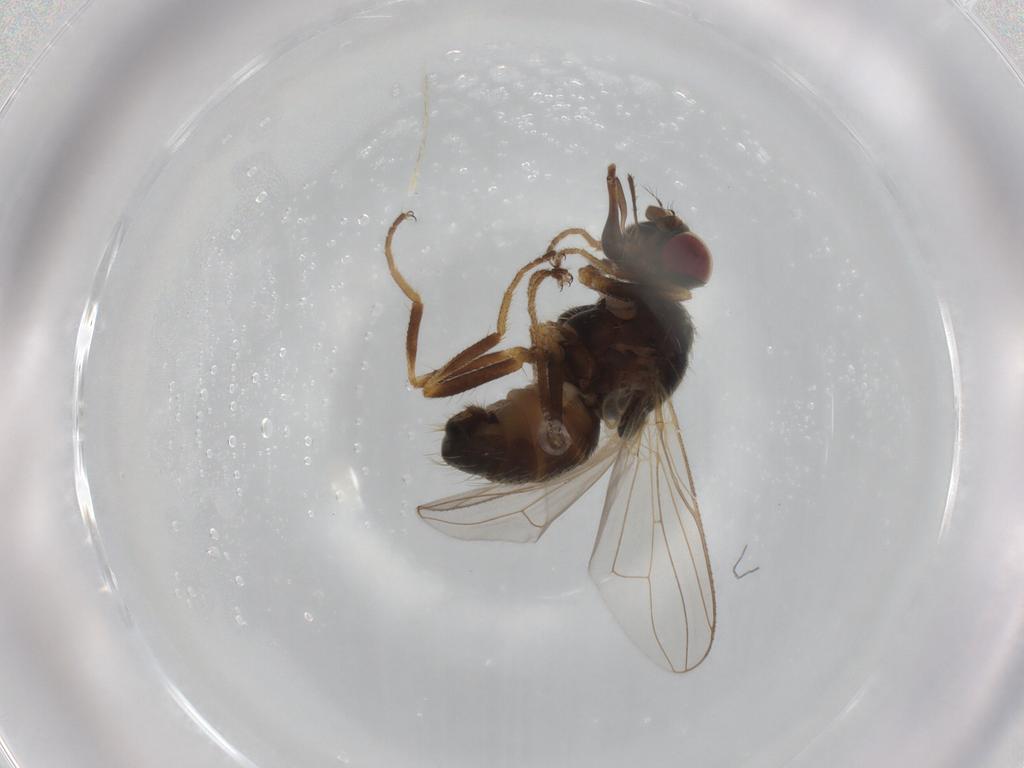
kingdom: Animalia
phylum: Arthropoda
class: Insecta
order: Diptera
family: Muscidae
